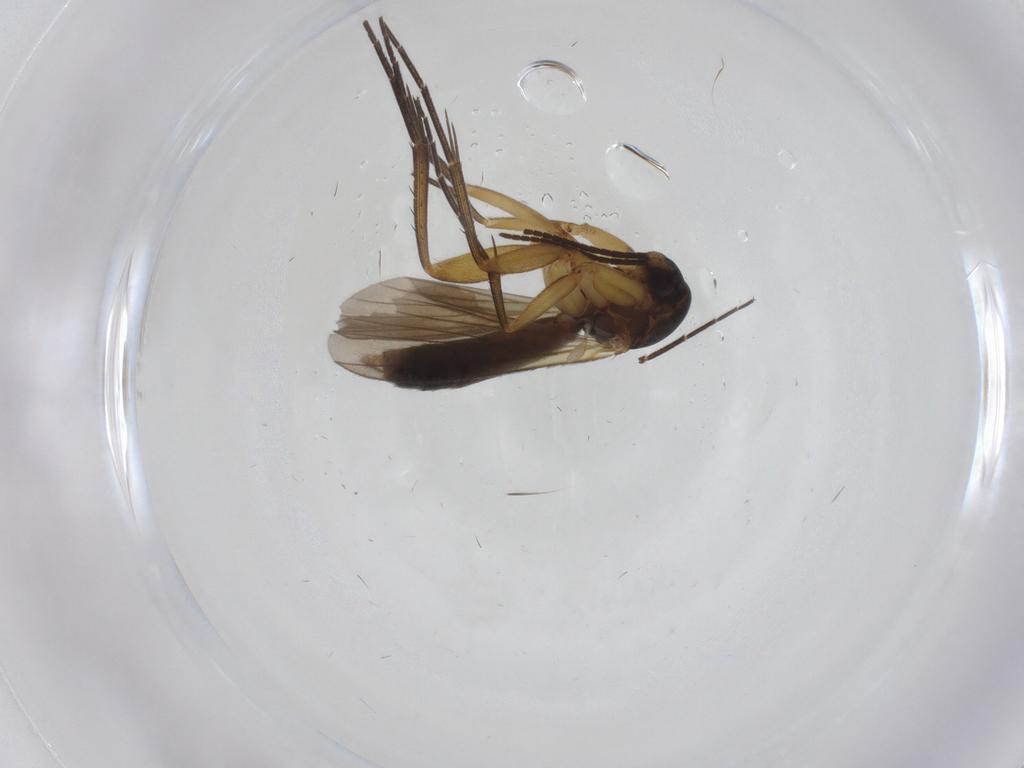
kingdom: Animalia
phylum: Arthropoda
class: Insecta
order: Diptera
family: Mycetophilidae
